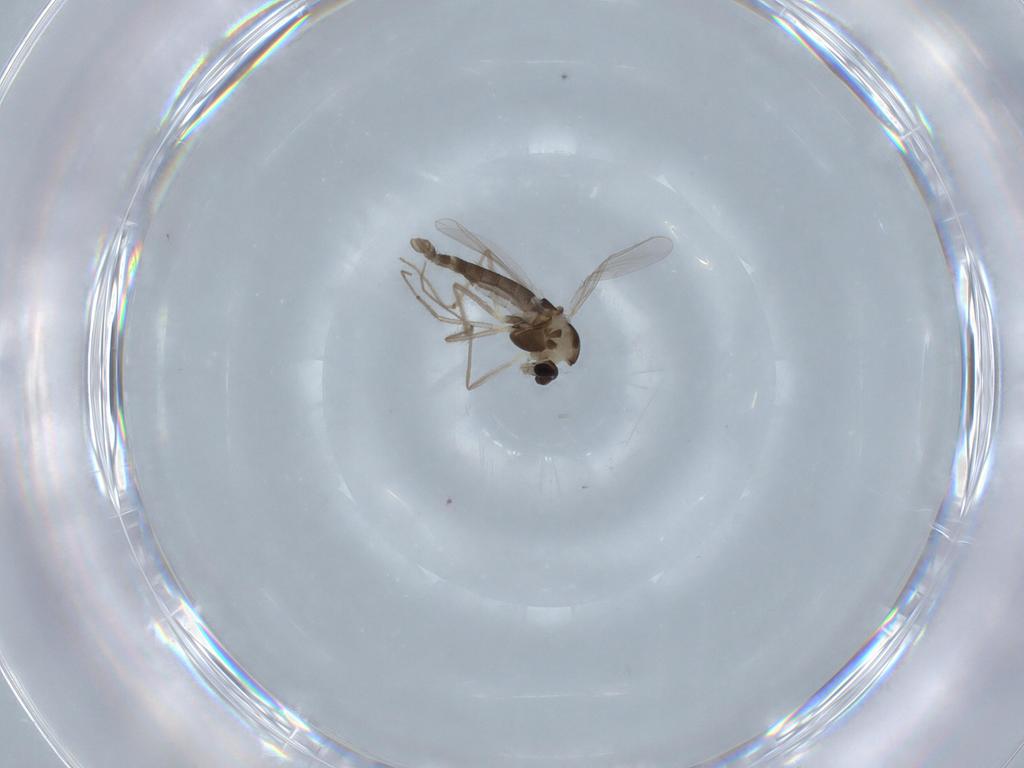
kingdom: Animalia
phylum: Arthropoda
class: Insecta
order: Diptera
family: Chironomidae
